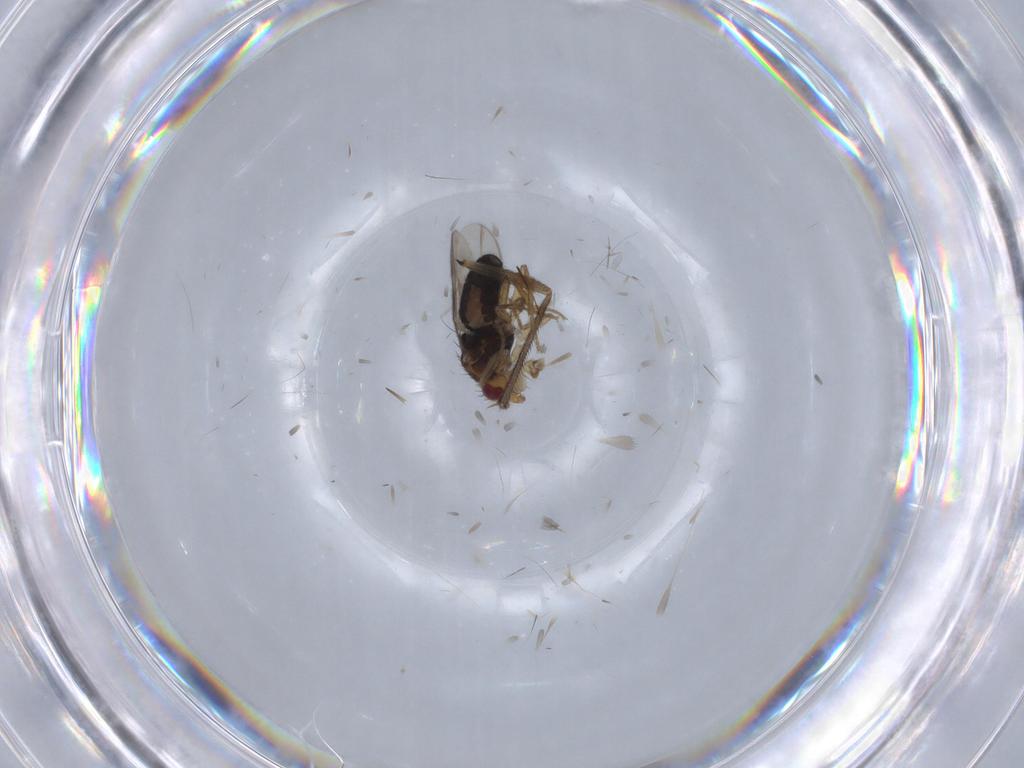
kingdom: Animalia
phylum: Arthropoda
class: Insecta
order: Diptera
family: Sphaeroceridae
